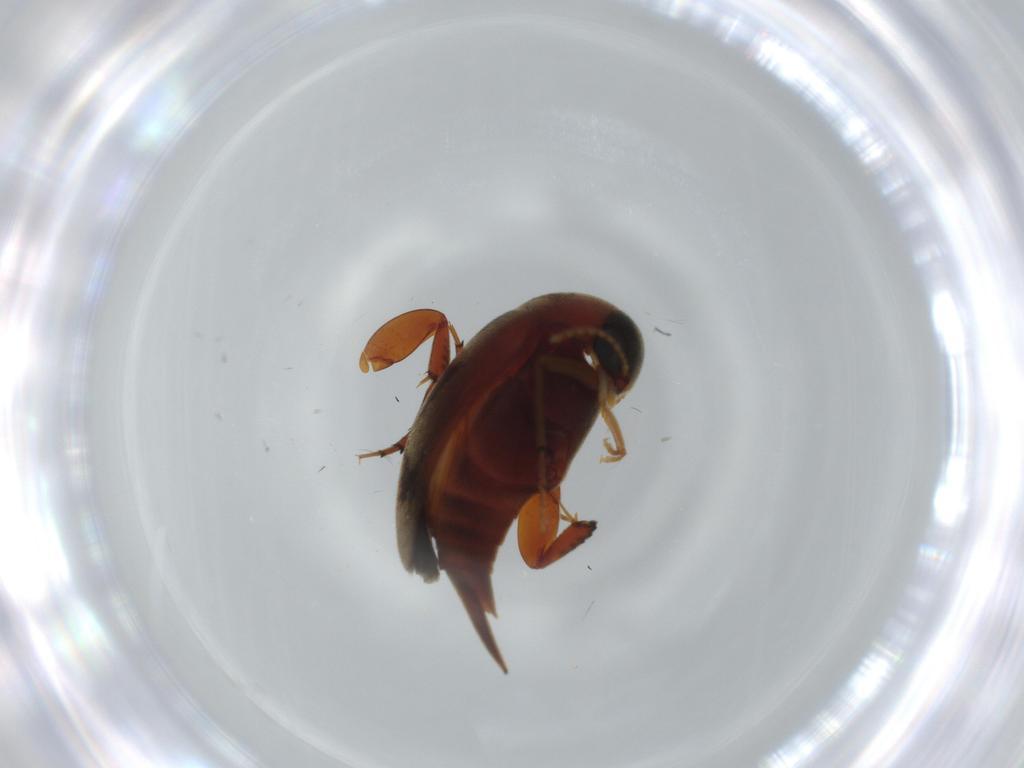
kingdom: Animalia
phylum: Arthropoda
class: Insecta
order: Coleoptera
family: Mordellidae
